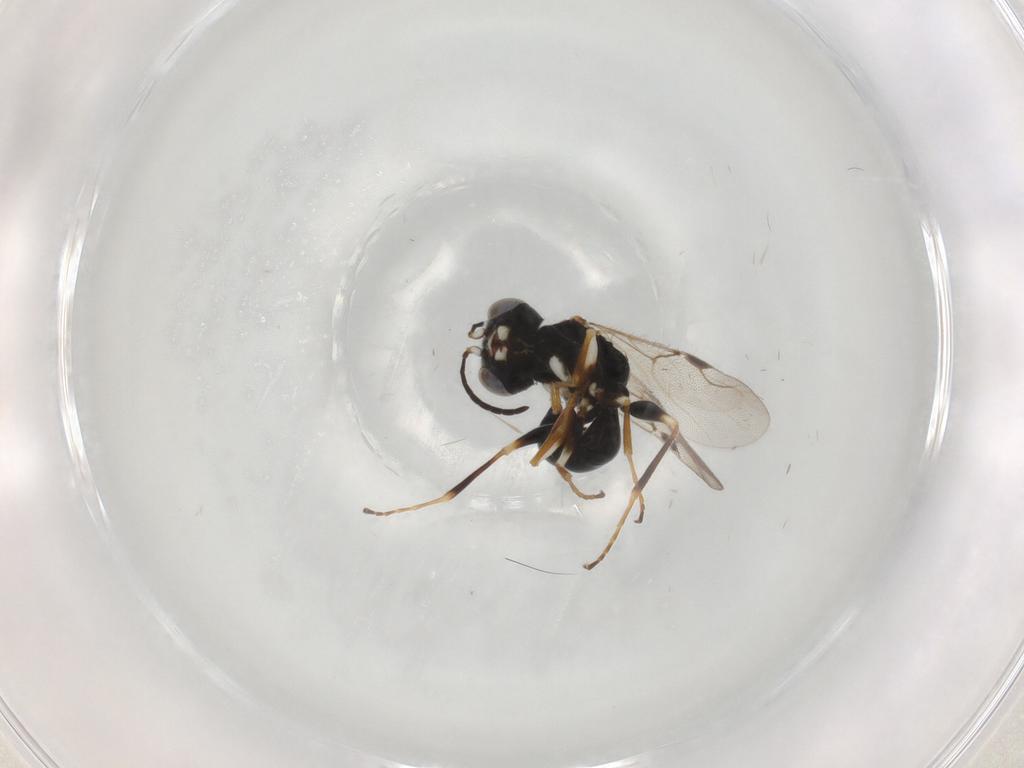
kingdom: Animalia
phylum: Arthropoda
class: Insecta
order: Hymenoptera
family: Dryinidae
